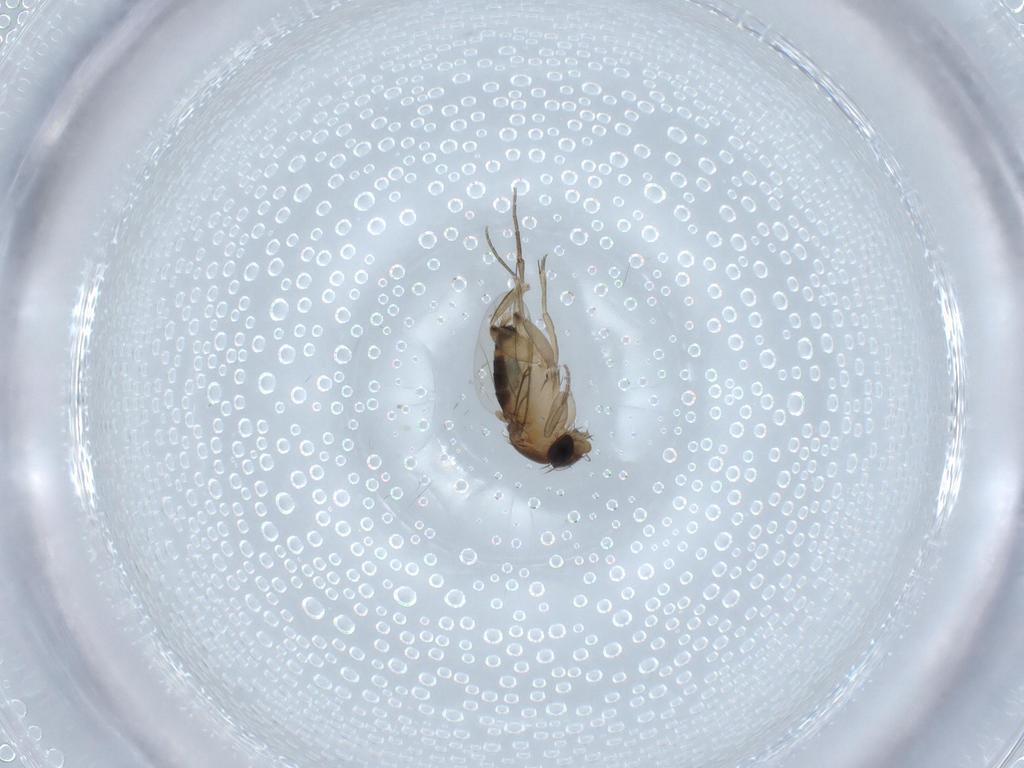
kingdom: Animalia
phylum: Arthropoda
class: Insecta
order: Diptera
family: Phoridae
